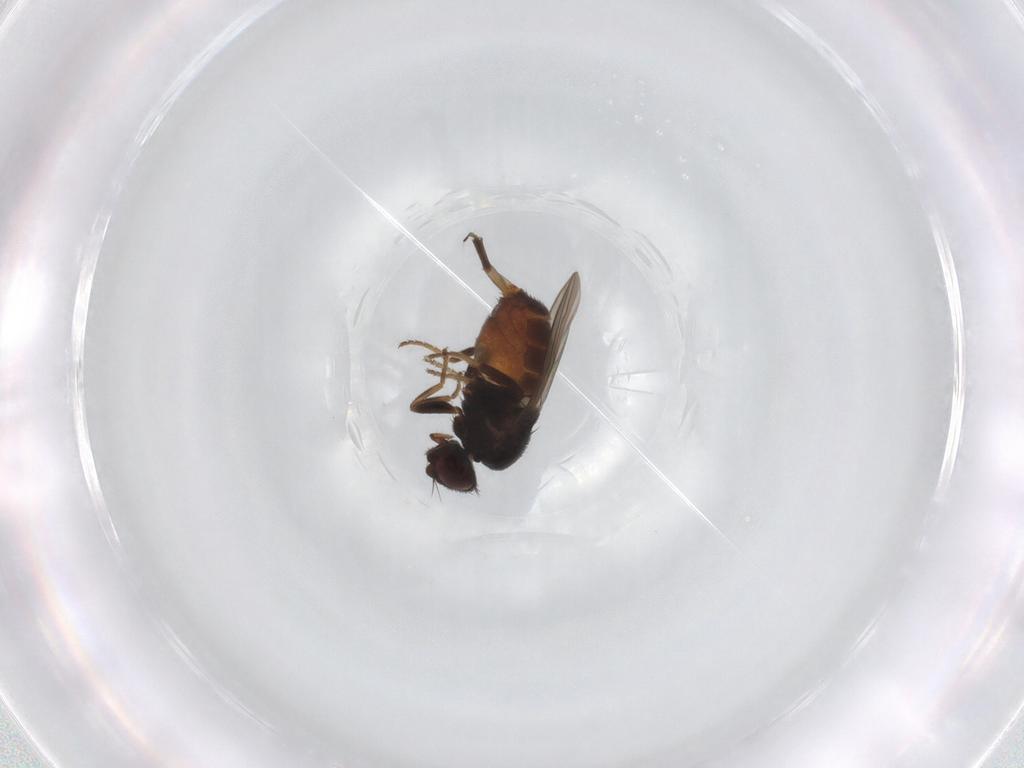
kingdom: Animalia
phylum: Arthropoda
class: Insecta
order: Diptera
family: Chloropidae
